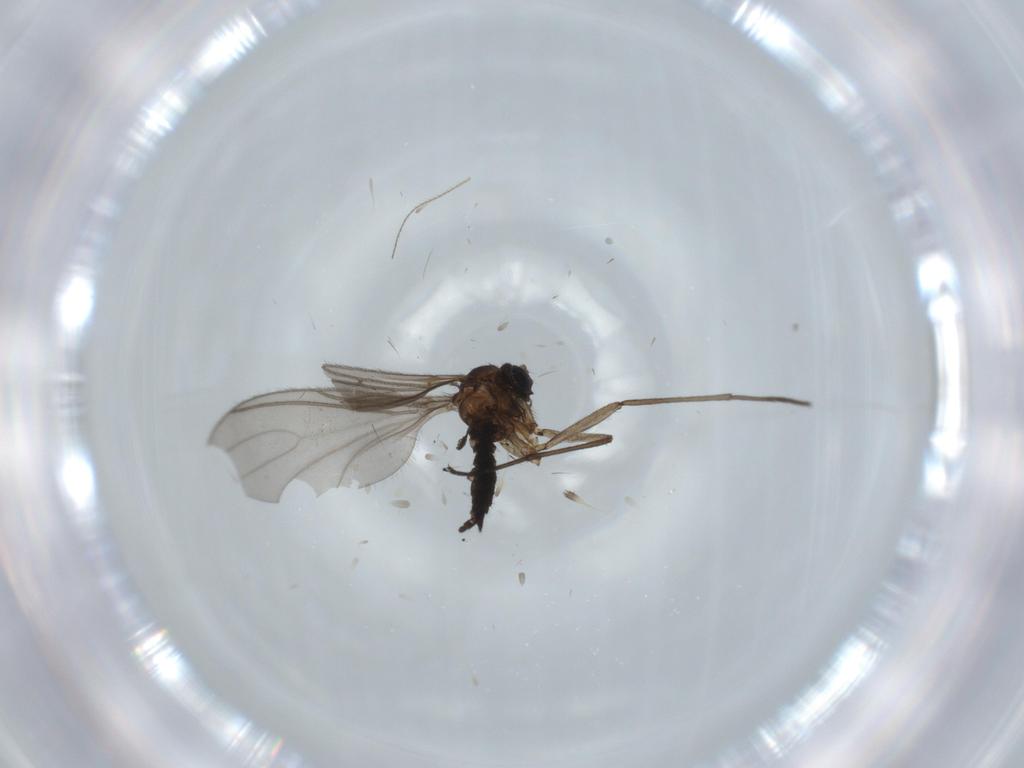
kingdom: Animalia
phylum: Arthropoda
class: Insecta
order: Diptera
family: Sciaridae
